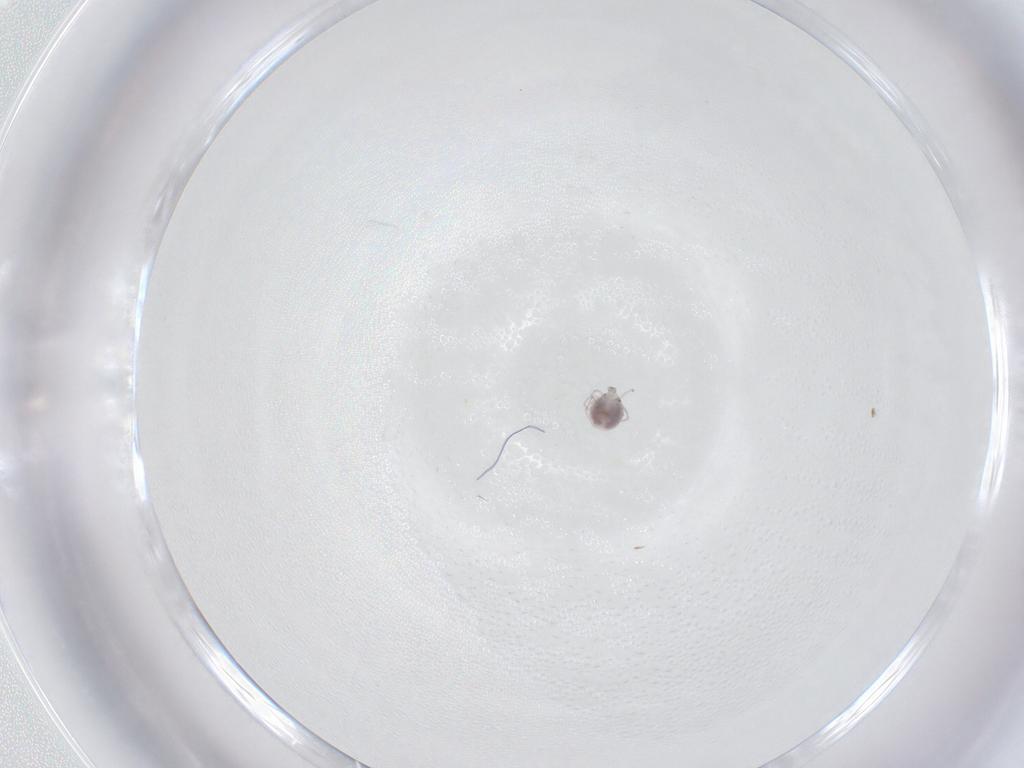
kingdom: Animalia
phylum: Arthropoda
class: Arachnida
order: Trombidiformes
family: Pionidae
